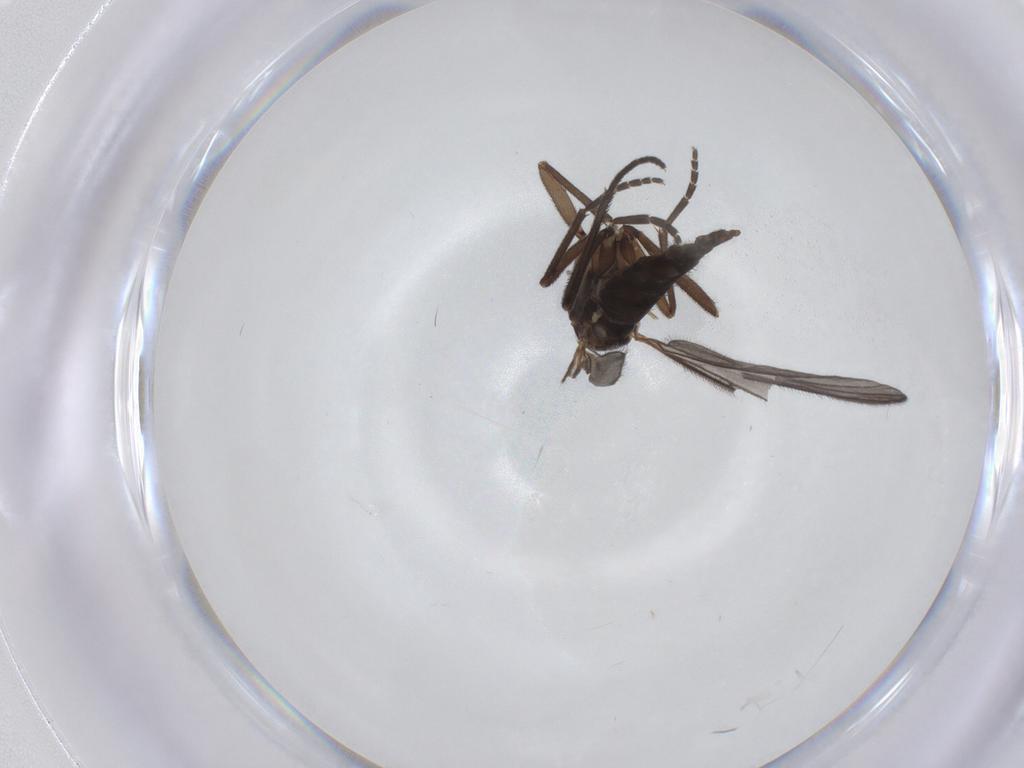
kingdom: Animalia
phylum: Arthropoda
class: Insecta
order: Diptera
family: Sciaridae
